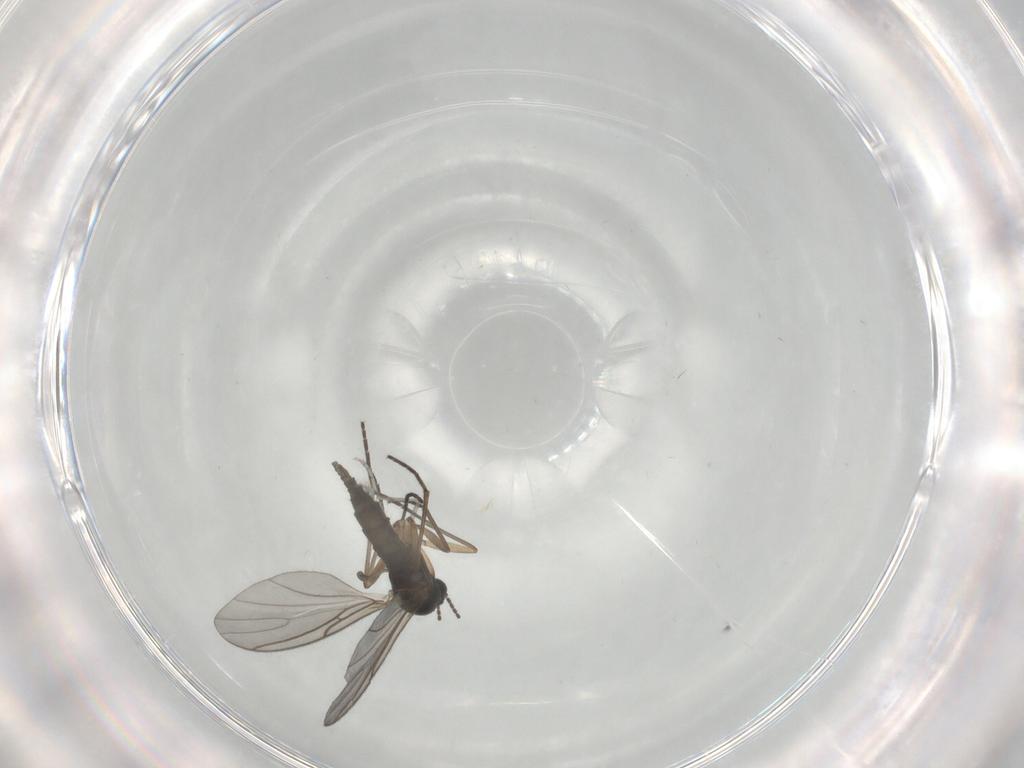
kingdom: Animalia
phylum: Arthropoda
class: Insecta
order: Diptera
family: Sciaridae
